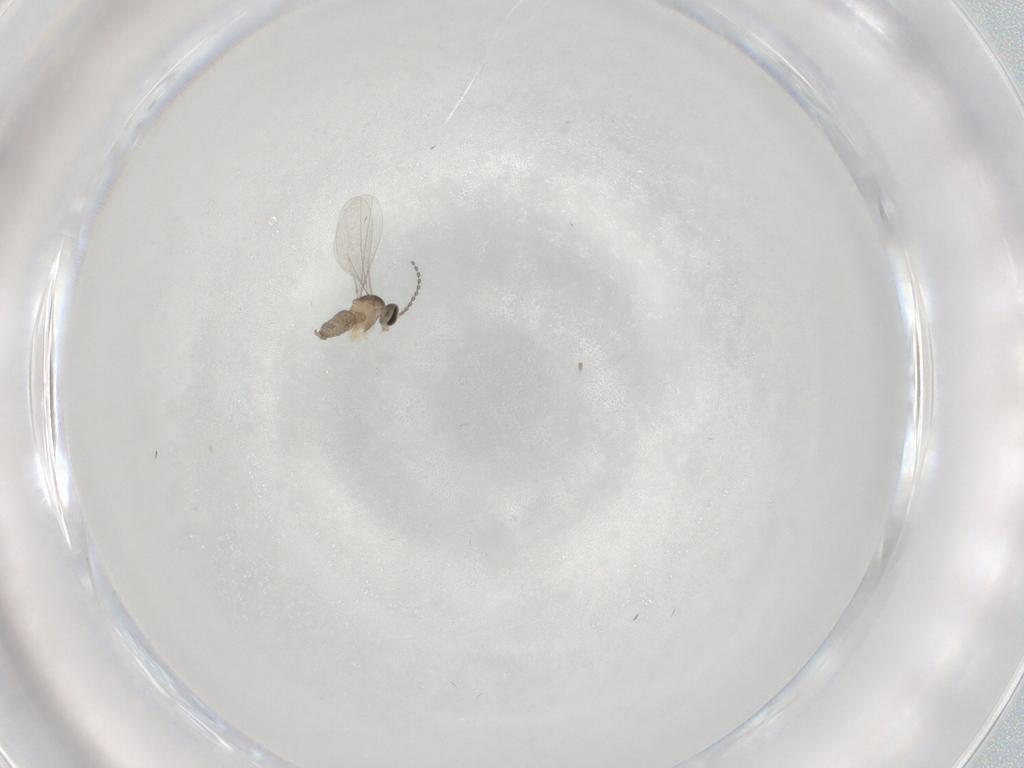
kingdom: Animalia
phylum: Arthropoda
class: Insecta
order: Diptera
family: Cecidomyiidae
